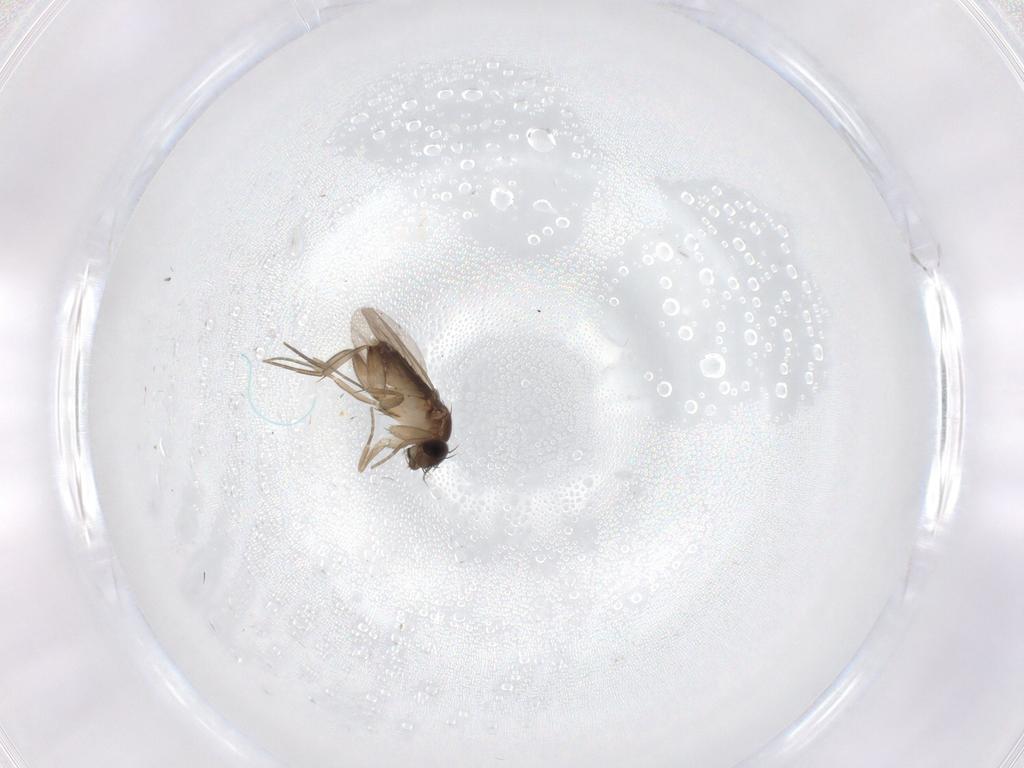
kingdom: Animalia
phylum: Arthropoda
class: Insecta
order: Diptera
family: Phoridae
